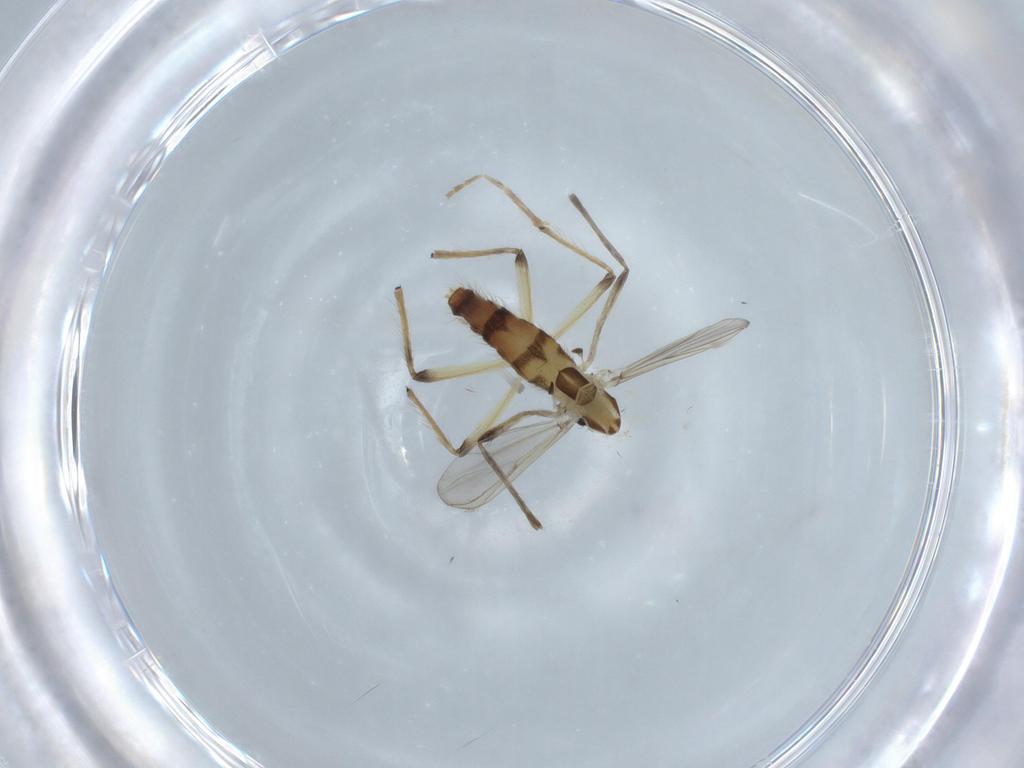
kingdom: Animalia
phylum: Arthropoda
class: Insecta
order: Diptera
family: Chironomidae
